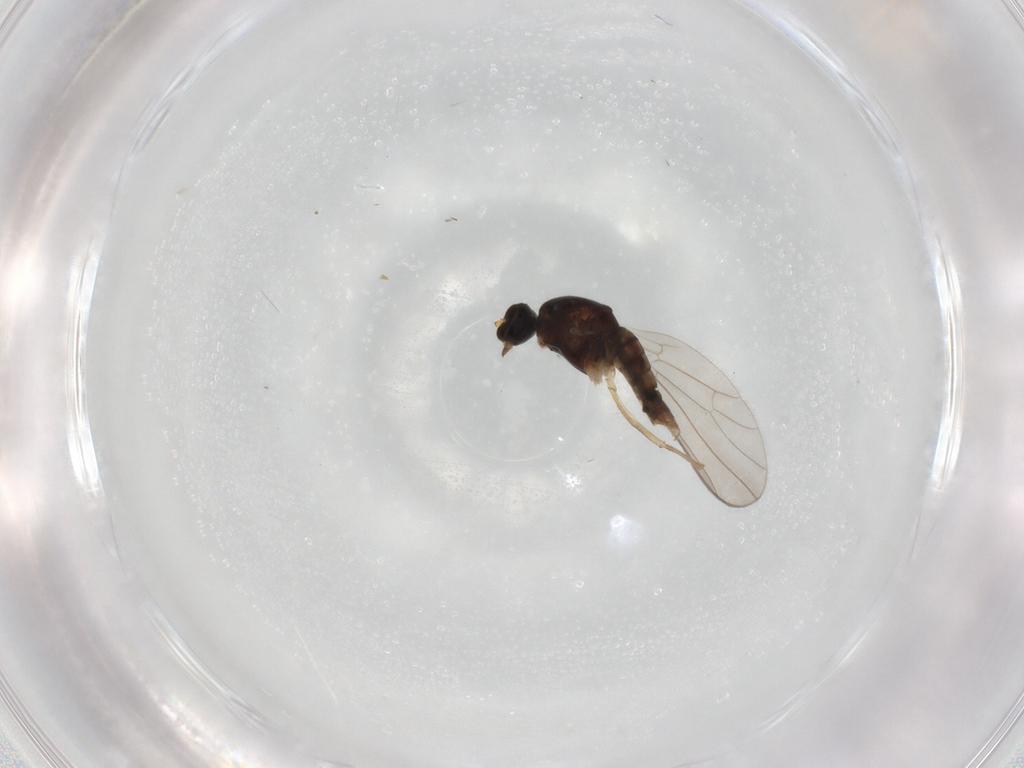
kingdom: Animalia
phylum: Arthropoda
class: Insecta
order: Diptera
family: Empididae
